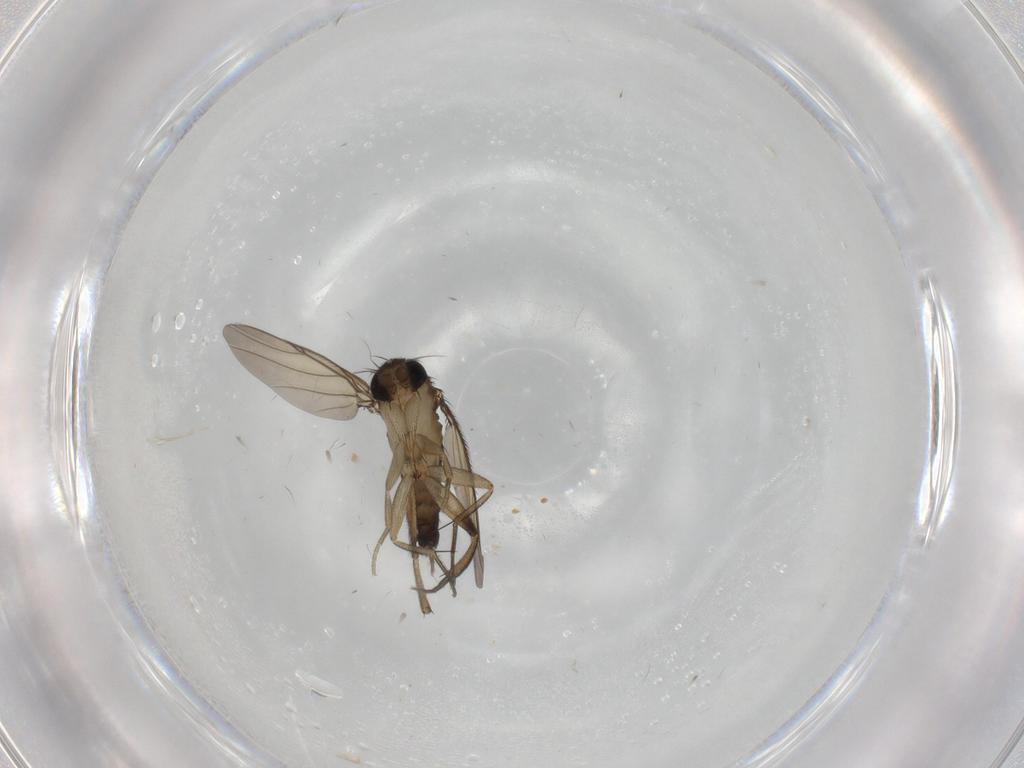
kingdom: Animalia
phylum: Arthropoda
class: Insecta
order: Diptera
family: Phoridae
